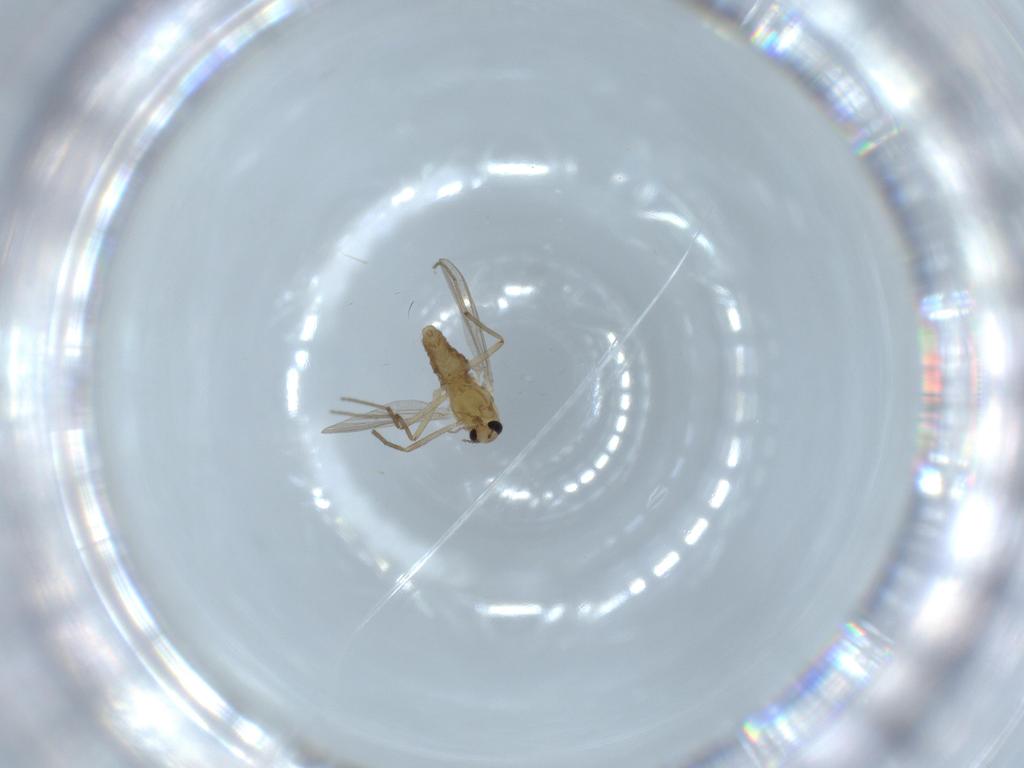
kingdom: Animalia
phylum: Arthropoda
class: Insecta
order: Diptera
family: Chironomidae
